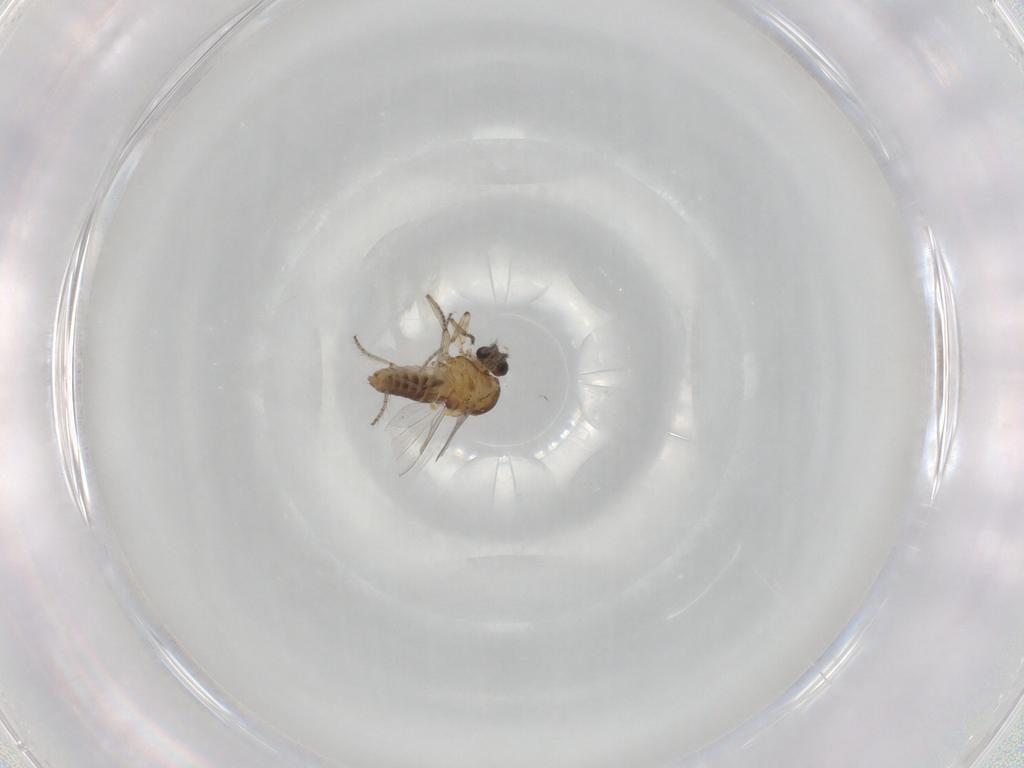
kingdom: Animalia
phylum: Arthropoda
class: Insecta
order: Diptera
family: Ceratopogonidae
